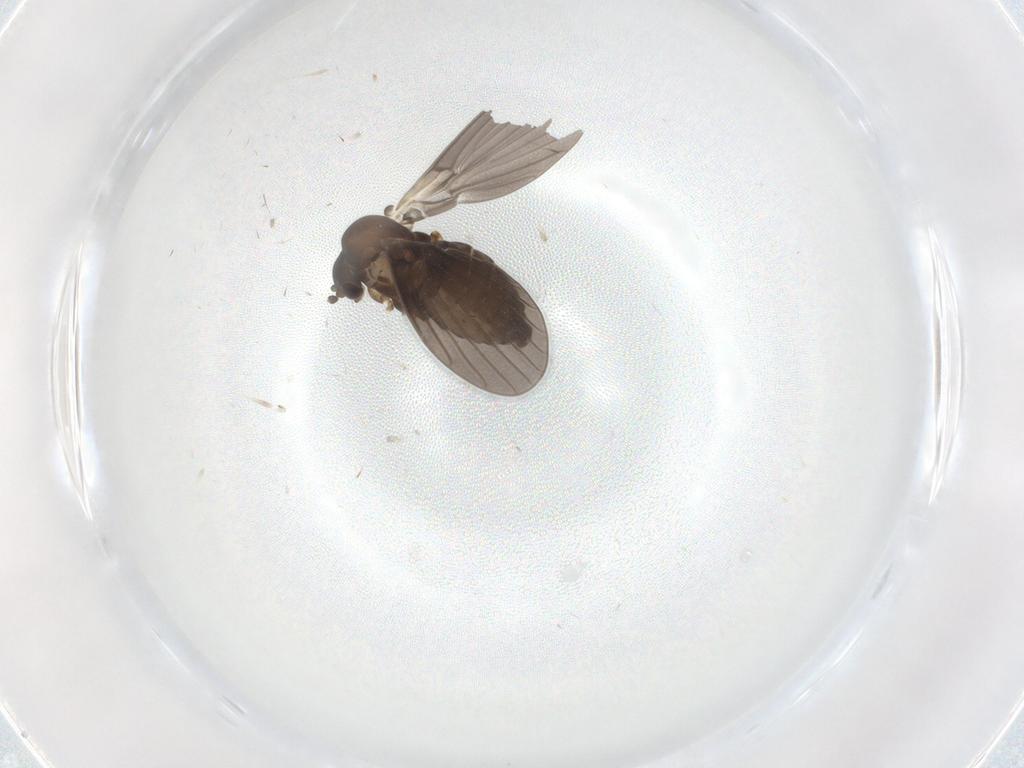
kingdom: Animalia
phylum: Arthropoda
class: Insecta
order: Diptera
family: Psychodidae
